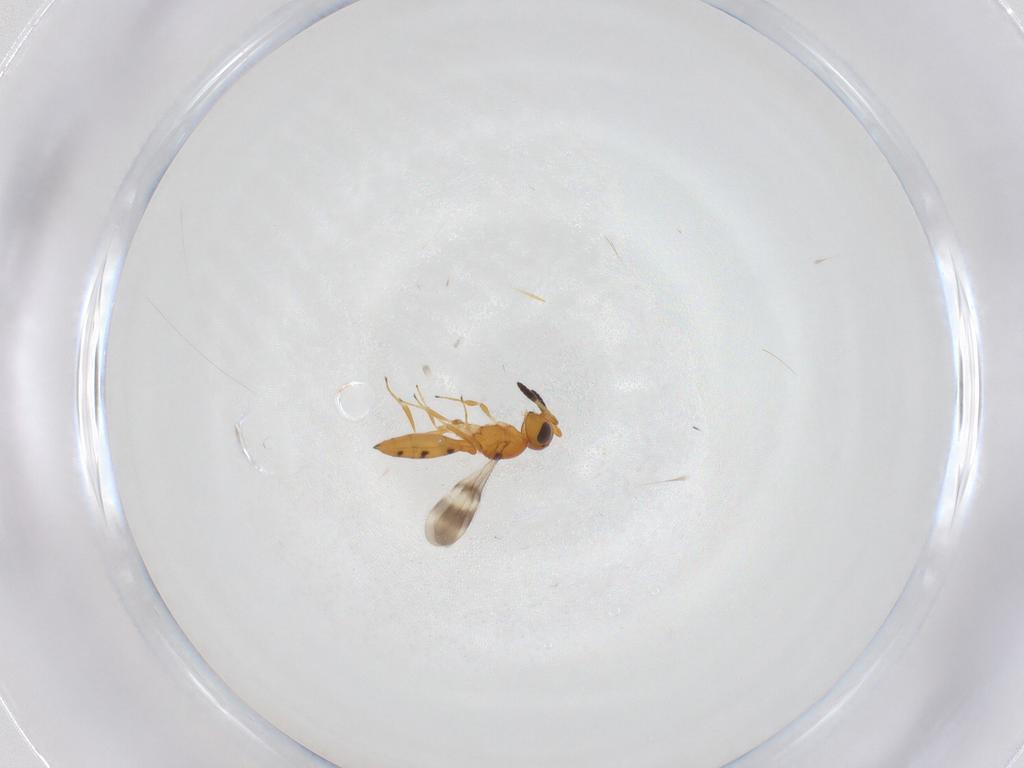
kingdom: Animalia
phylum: Arthropoda
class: Insecta
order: Hymenoptera
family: Scelionidae
